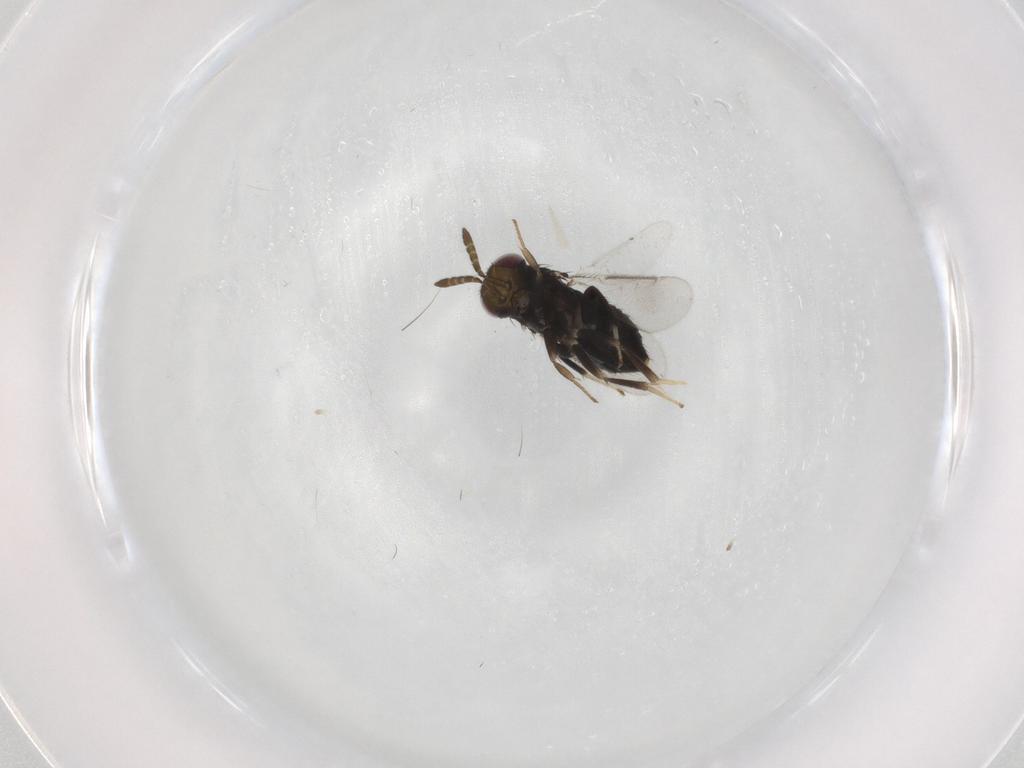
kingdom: Animalia
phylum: Arthropoda
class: Insecta
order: Hymenoptera
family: Aphelinidae
